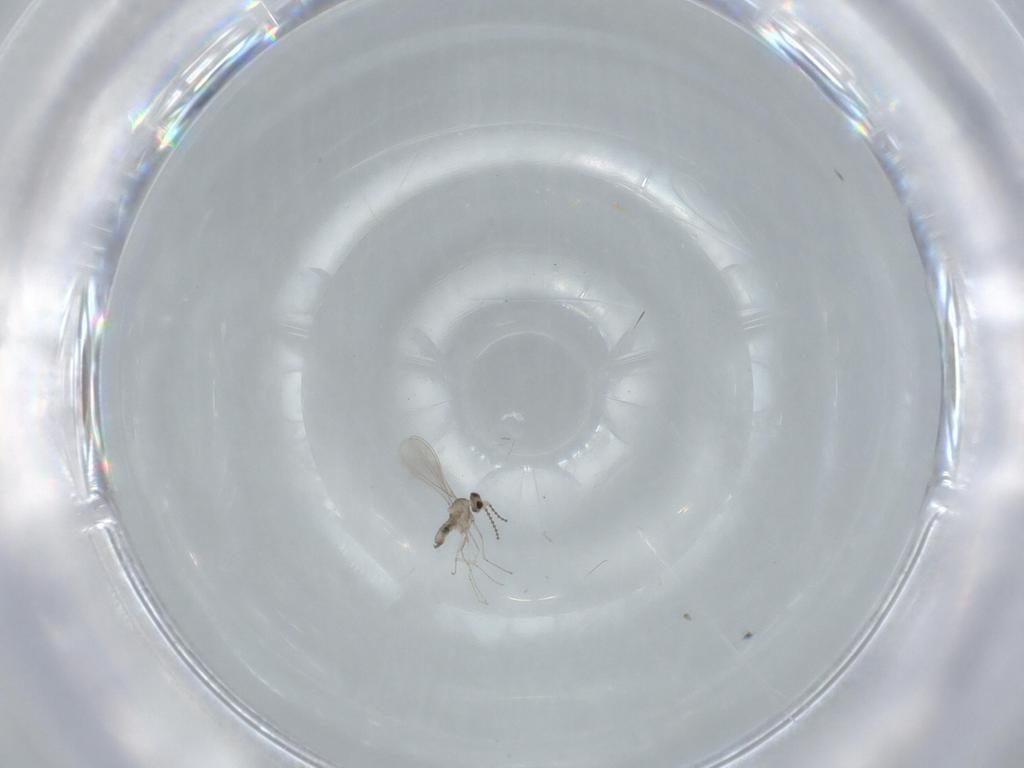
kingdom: Animalia
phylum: Arthropoda
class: Insecta
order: Diptera
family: Cecidomyiidae
